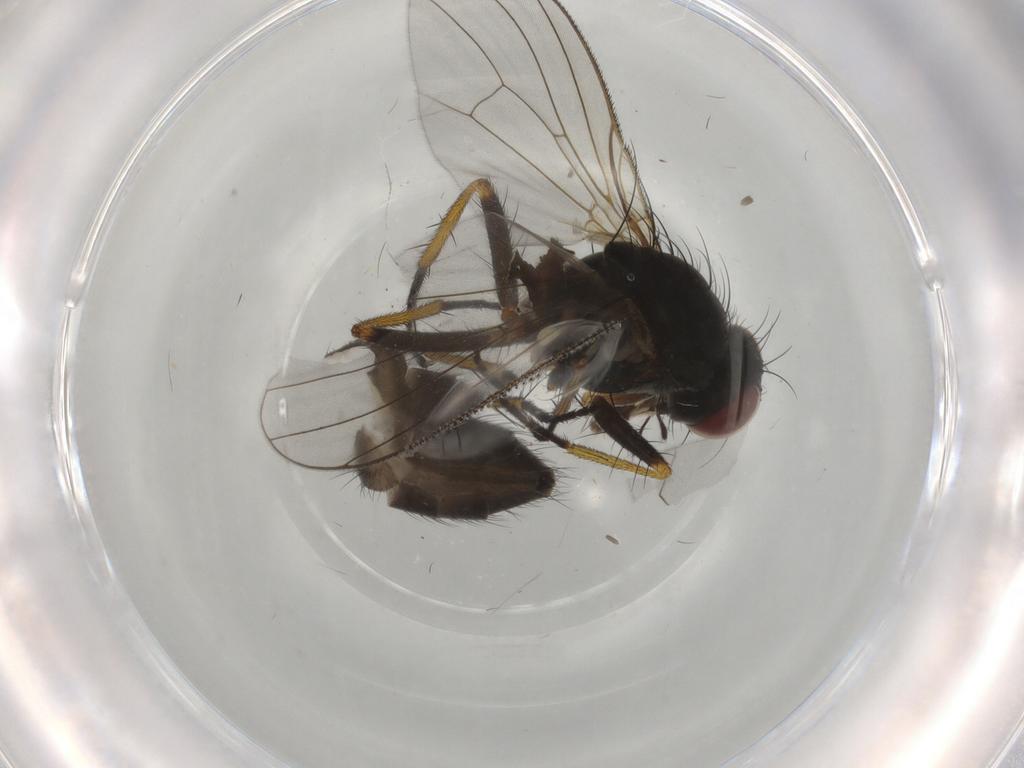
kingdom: Animalia
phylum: Arthropoda
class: Insecta
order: Diptera
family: Muscidae
